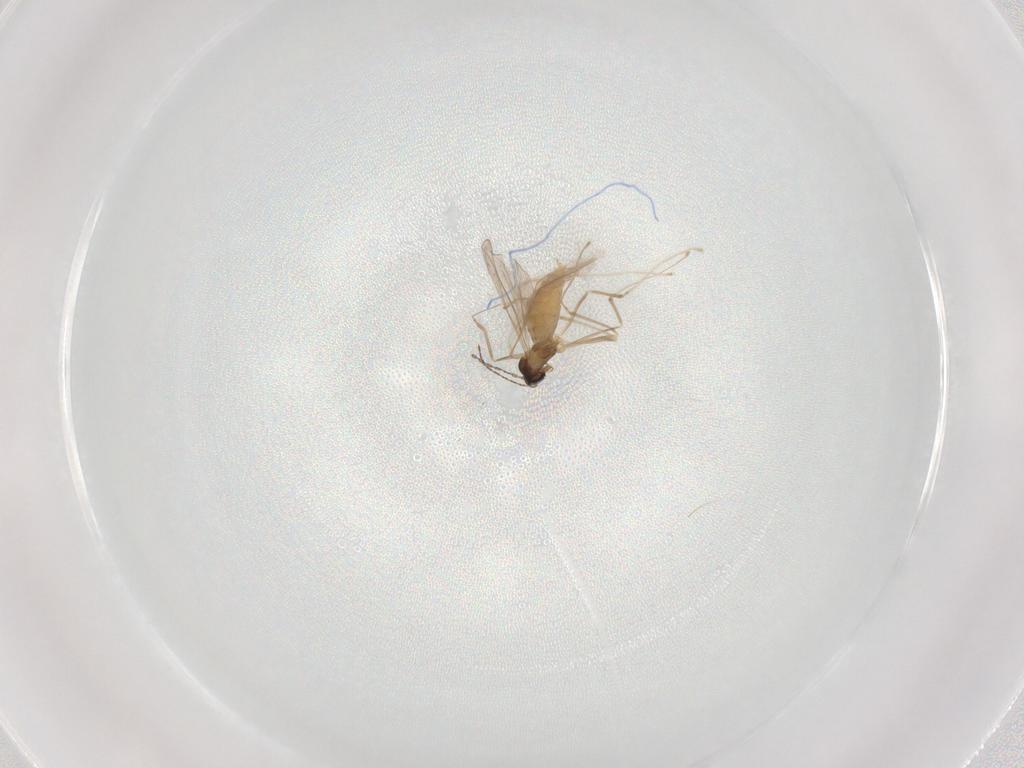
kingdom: Animalia
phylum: Arthropoda
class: Insecta
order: Diptera
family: Cecidomyiidae
